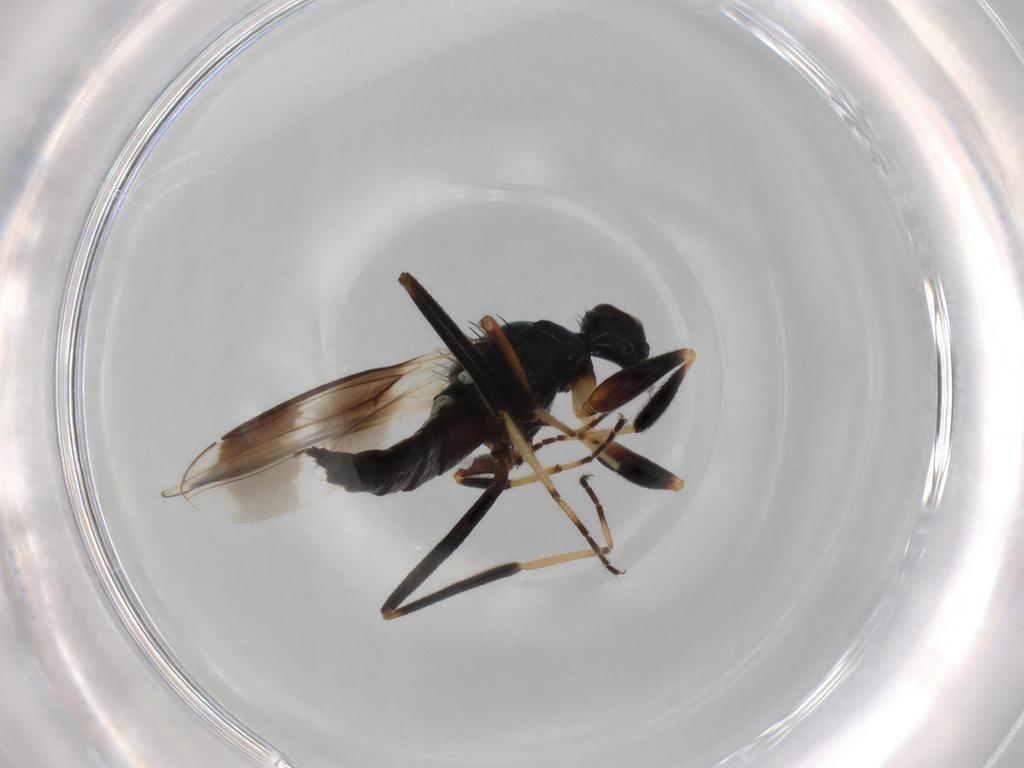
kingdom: Animalia
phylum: Arthropoda
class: Insecta
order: Diptera
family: Hybotidae
